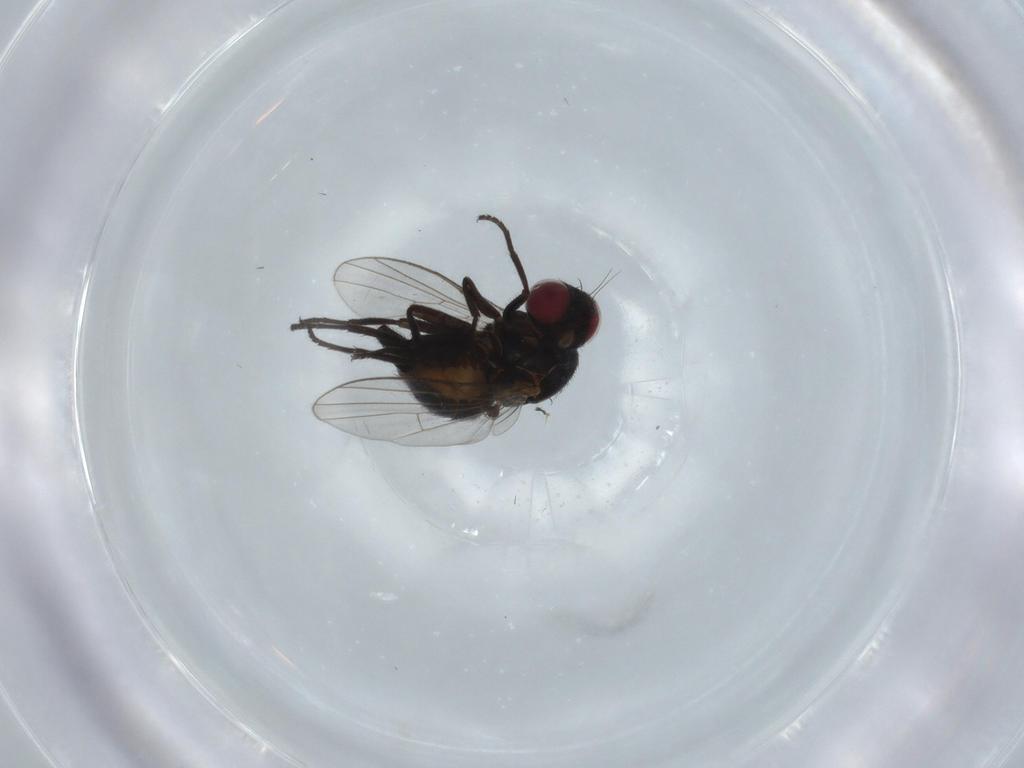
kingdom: Animalia
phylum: Arthropoda
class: Insecta
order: Diptera
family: Agromyzidae
